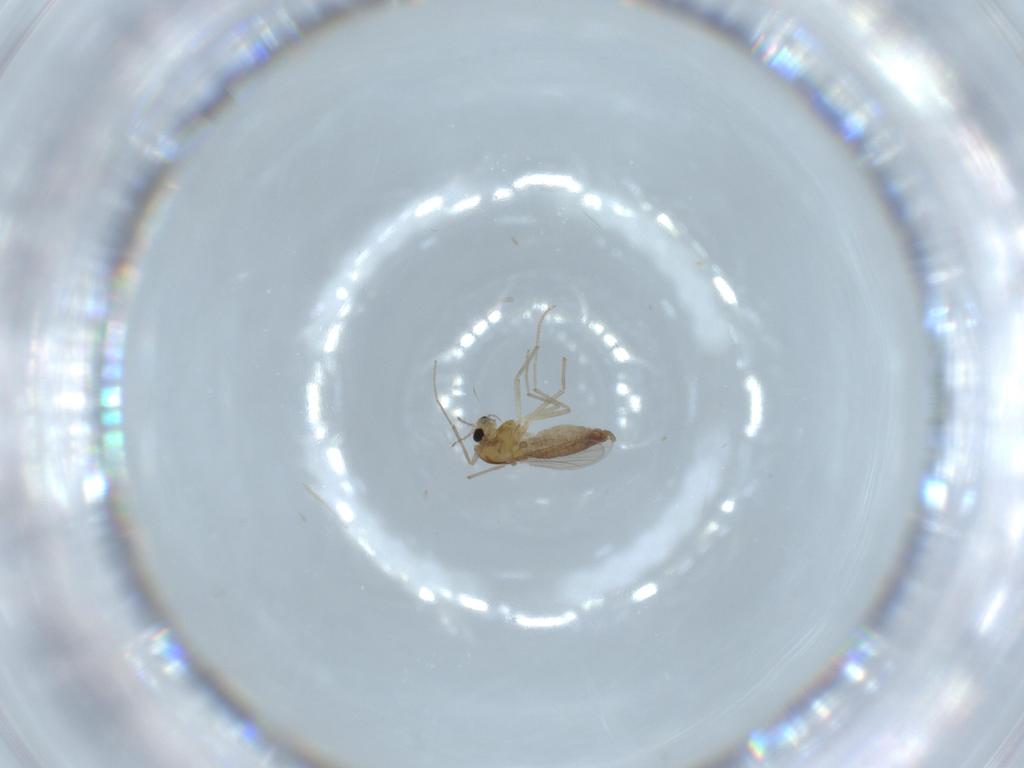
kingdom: Animalia
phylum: Arthropoda
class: Insecta
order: Diptera
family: Chironomidae
